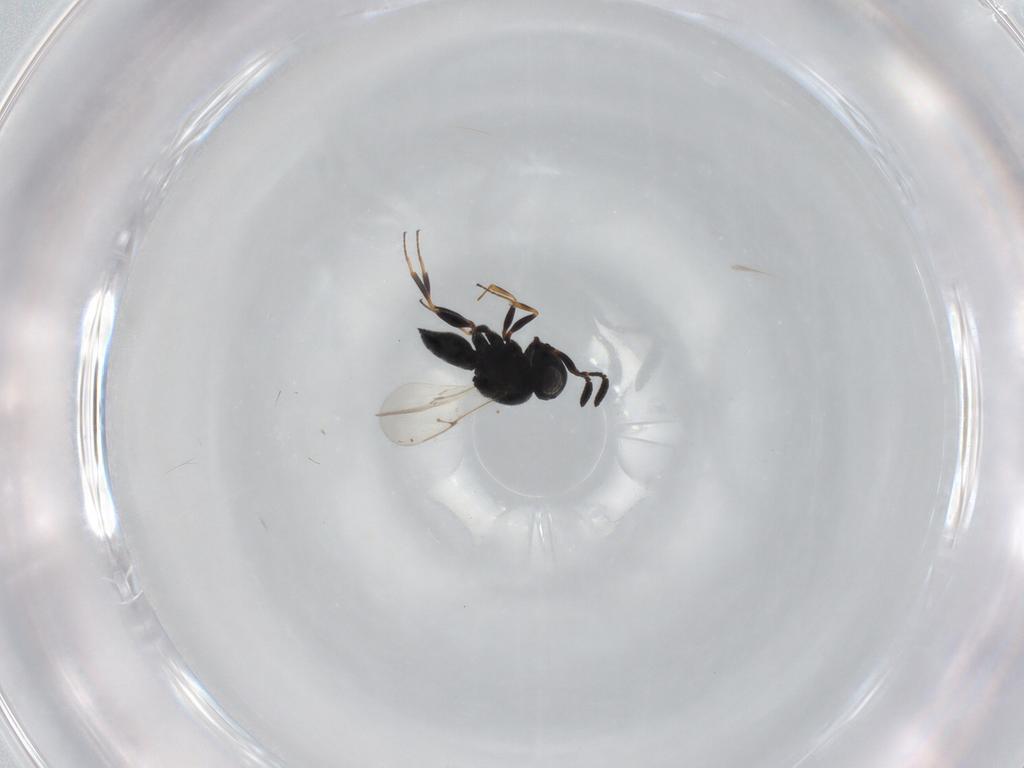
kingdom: Animalia
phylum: Arthropoda
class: Insecta
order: Hymenoptera
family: Scelionidae
